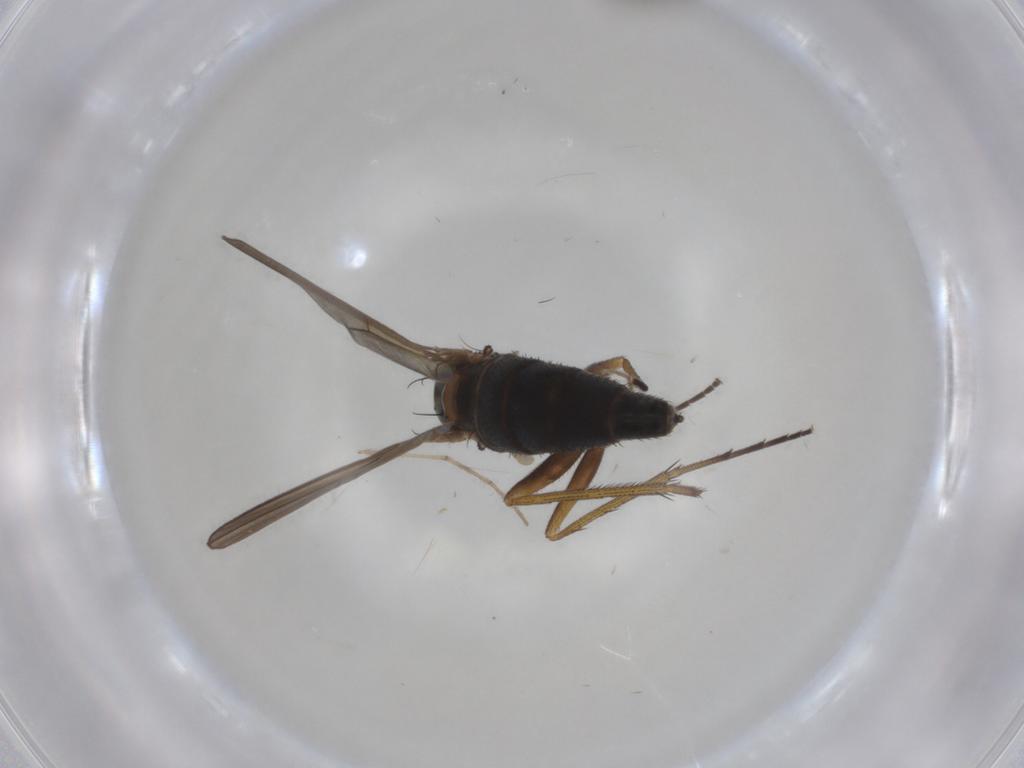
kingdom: Animalia
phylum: Arthropoda
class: Insecta
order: Diptera
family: Dolichopodidae
